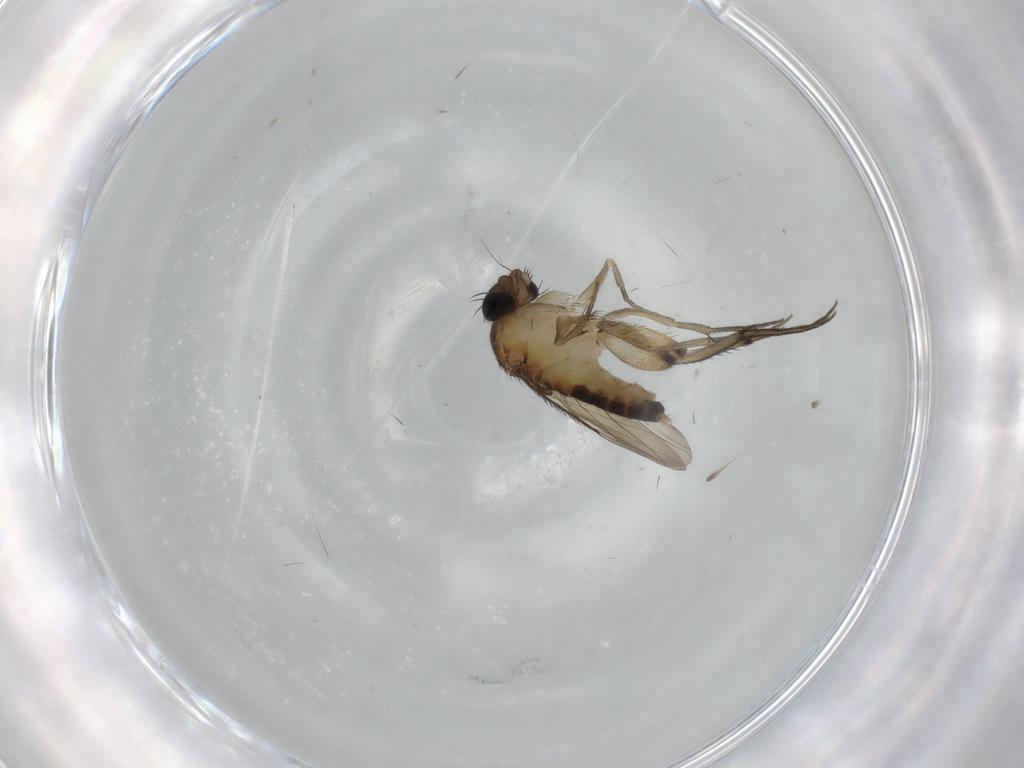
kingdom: Animalia
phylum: Arthropoda
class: Insecta
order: Diptera
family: Phoridae
